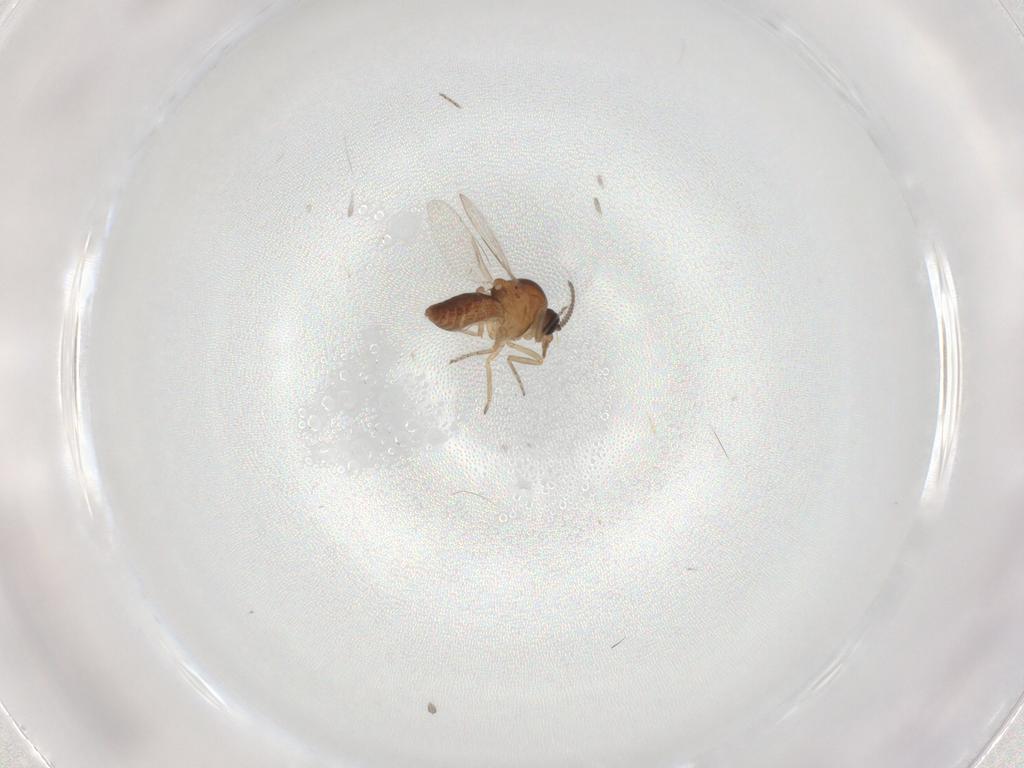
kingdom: Animalia
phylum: Arthropoda
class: Insecta
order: Diptera
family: Ceratopogonidae
